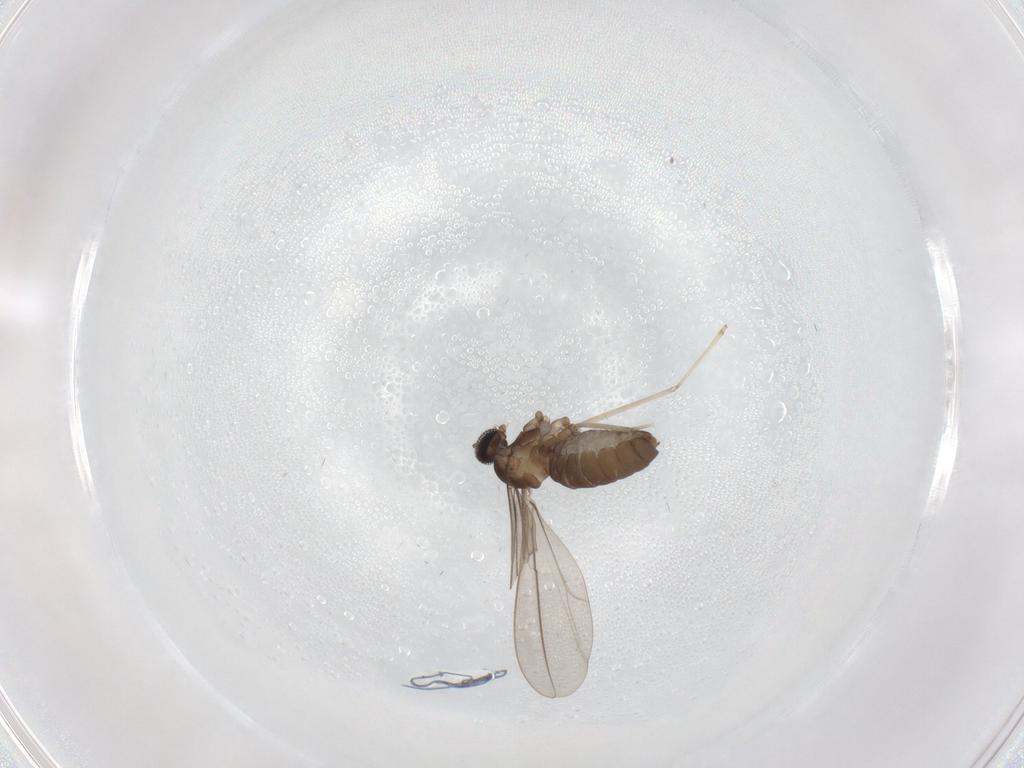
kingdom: Animalia
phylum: Arthropoda
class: Insecta
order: Diptera
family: Cecidomyiidae
